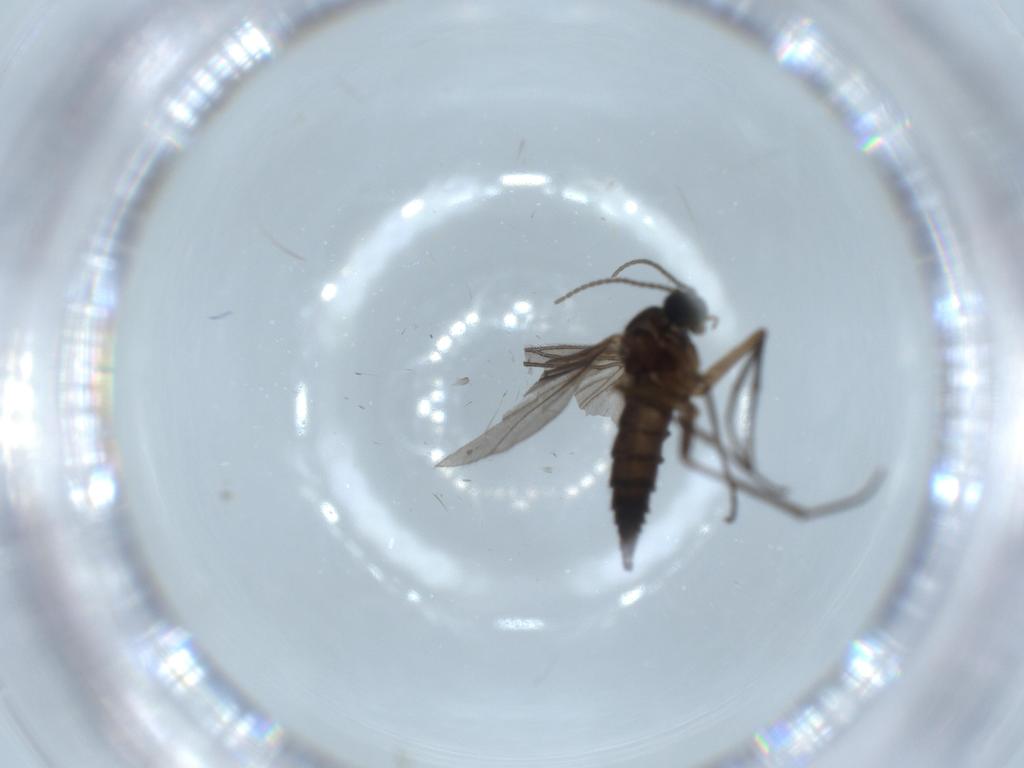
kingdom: Animalia
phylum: Arthropoda
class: Insecta
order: Diptera
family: Sciaridae
